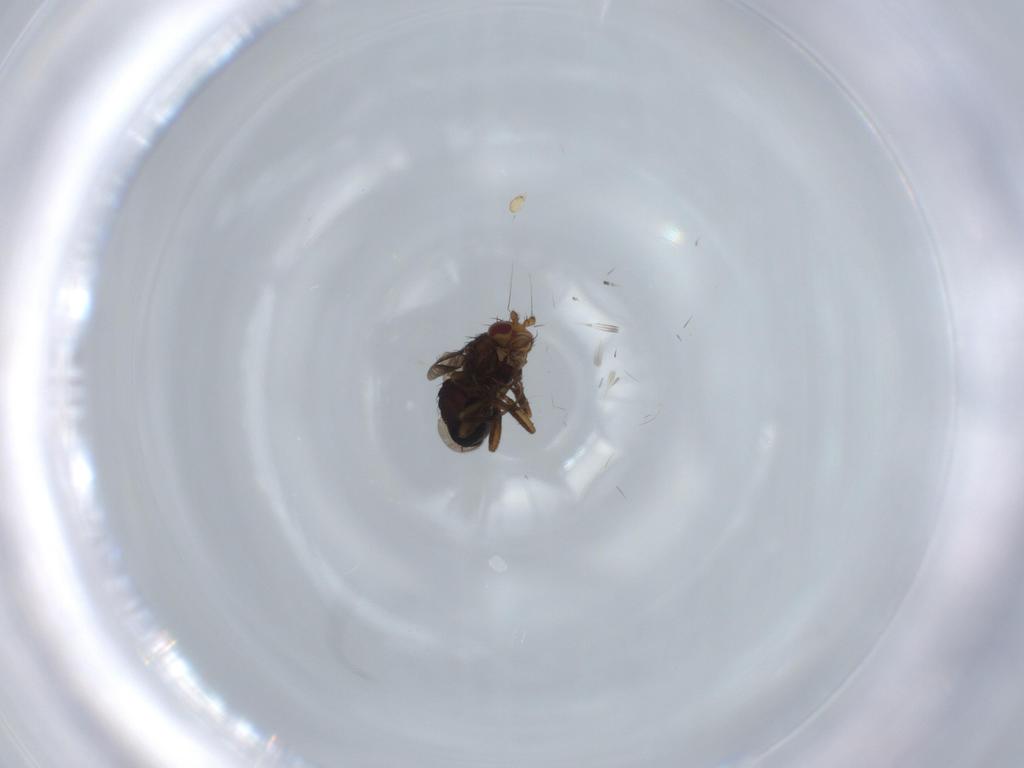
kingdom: Animalia
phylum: Arthropoda
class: Insecta
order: Diptera
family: Sphaeroceridae
